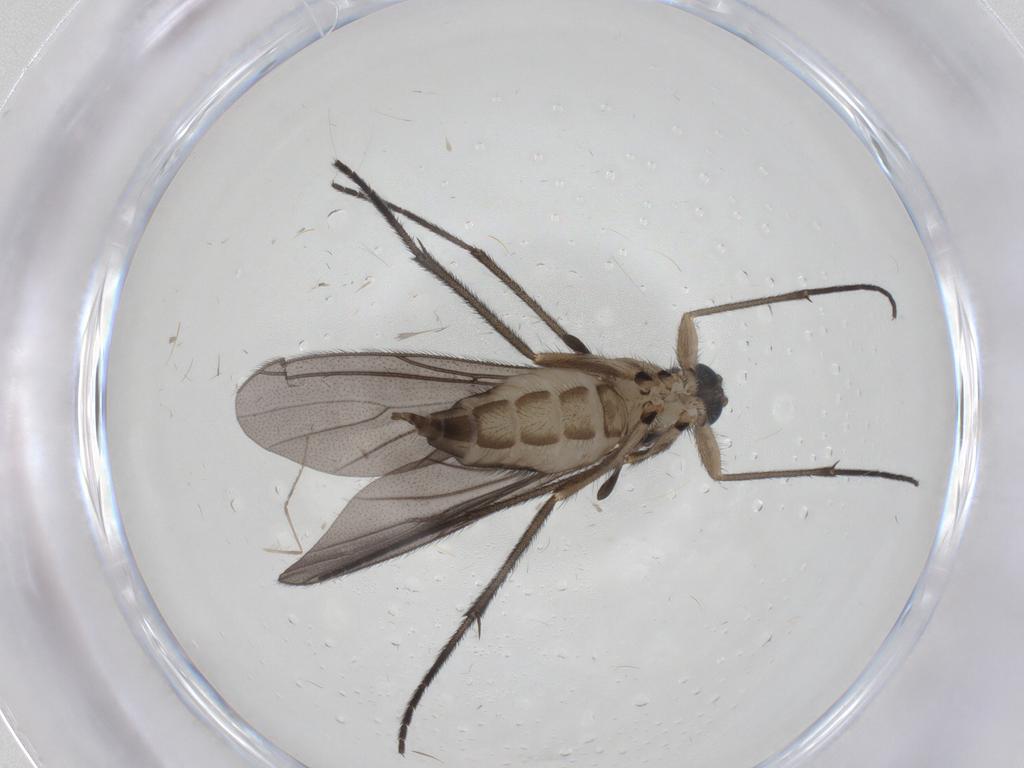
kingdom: Animalia
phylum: Arthropoda
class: Insecta
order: Diptera
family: Sciaridae
